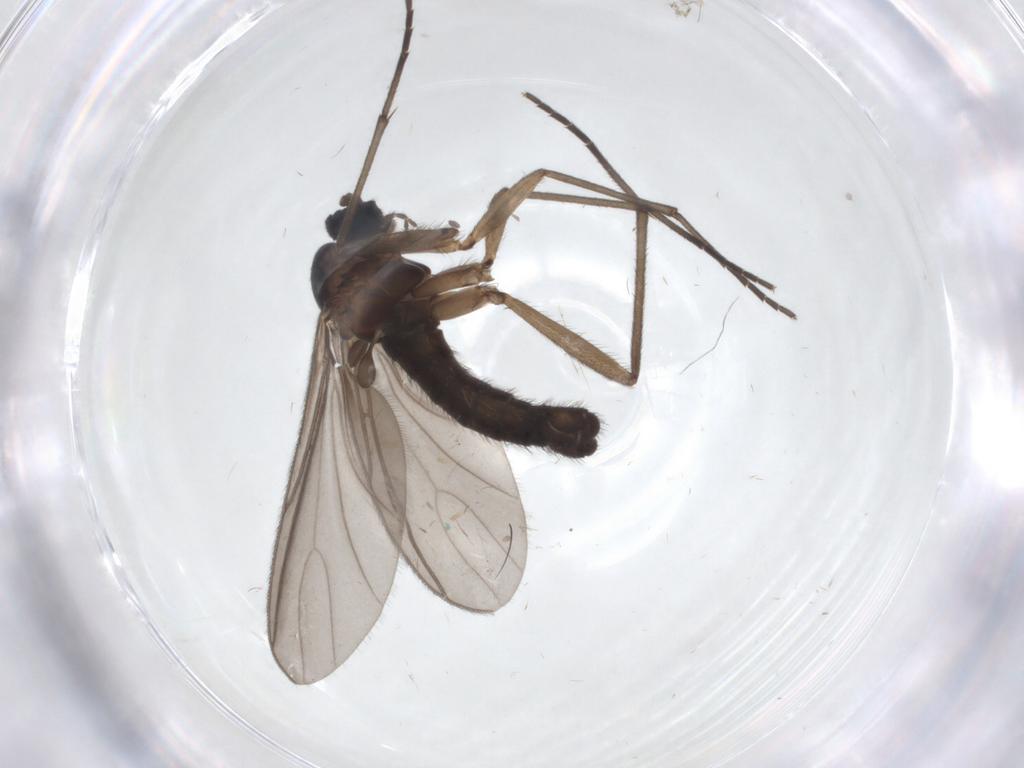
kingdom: Animalia
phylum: Arthropoda
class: Insecta
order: Diptera
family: Sciaridae
